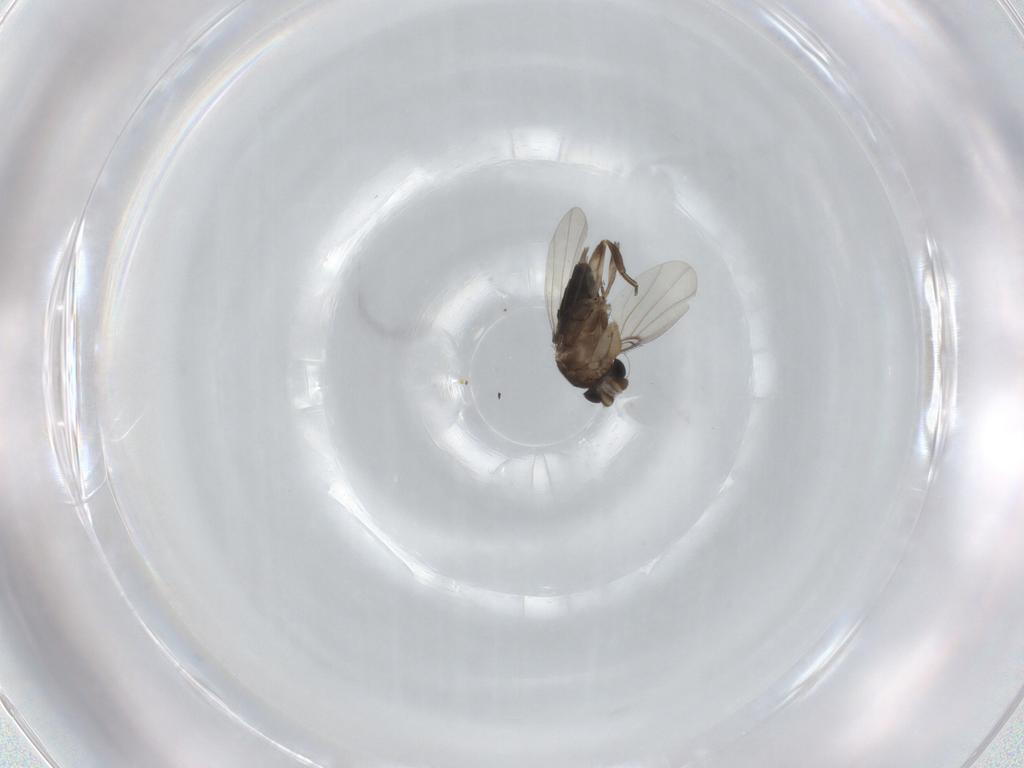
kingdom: Animalia
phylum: Arthropoda
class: Insecta
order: Diptera
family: Phoridae
